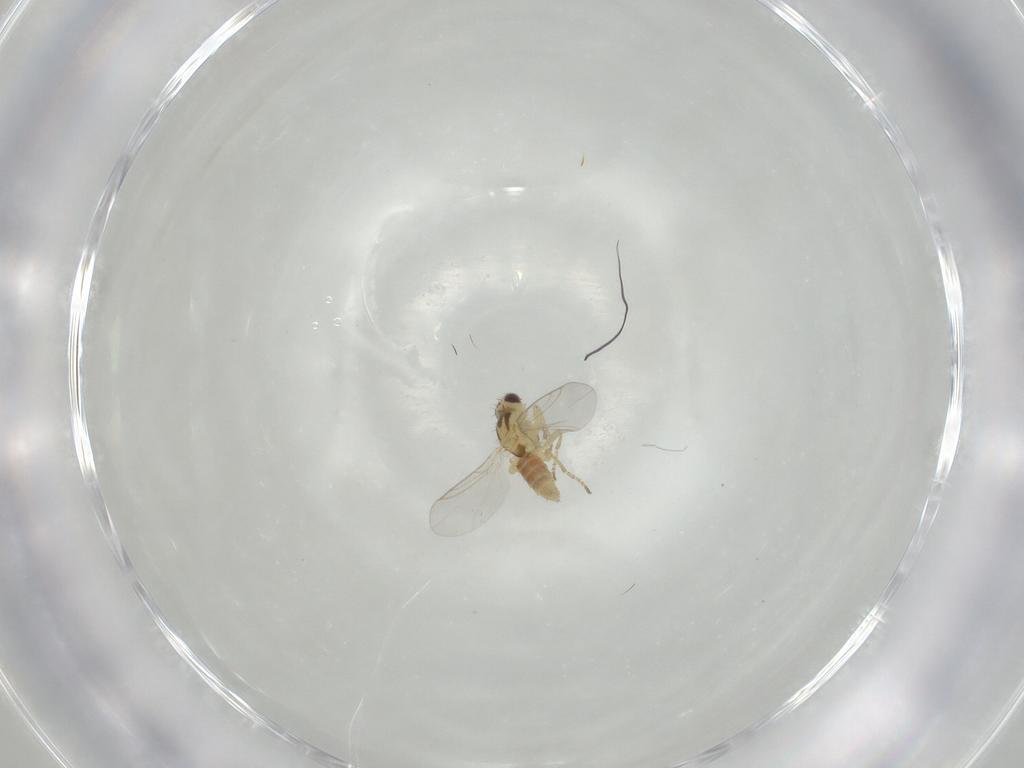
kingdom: Animalia
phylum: Arthropoda
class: Insecta
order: Diptera
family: Agromyzidae
